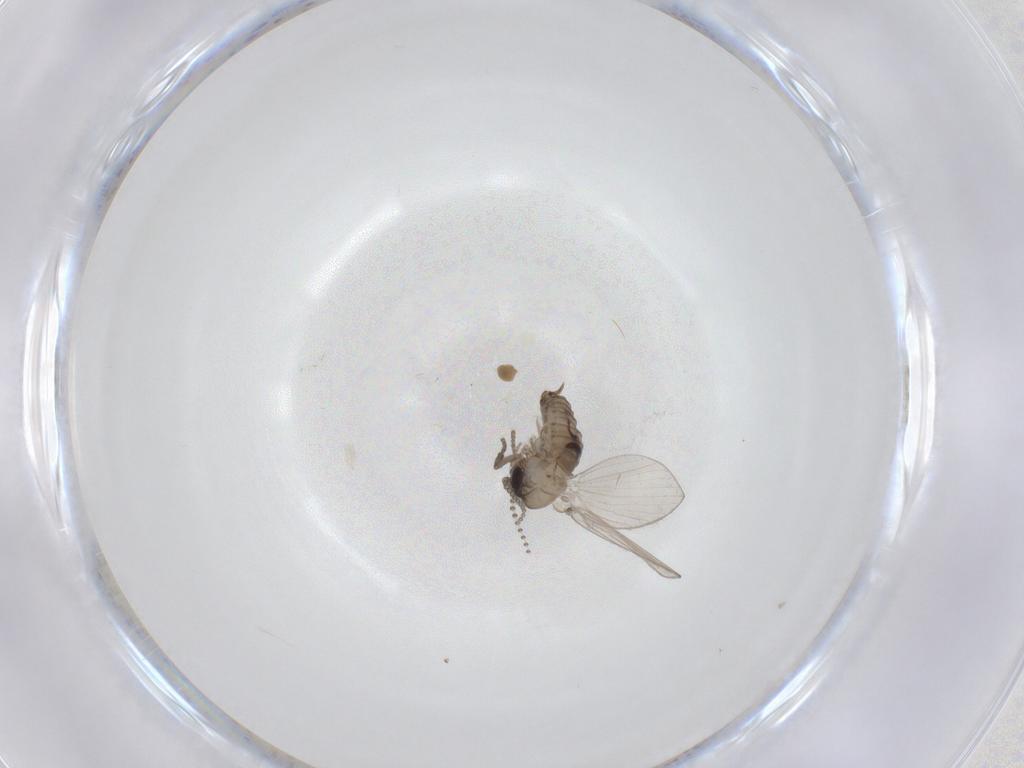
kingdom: Animalia
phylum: Arthropoda
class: Insecta
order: Diptera
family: Psychodidae
